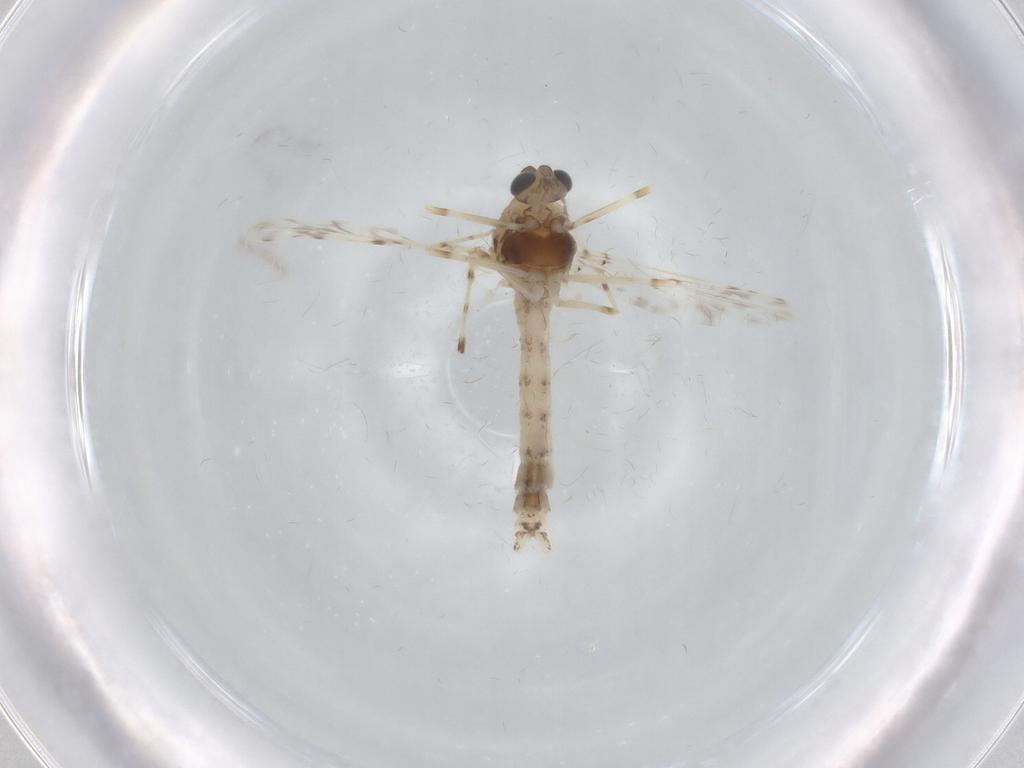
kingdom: Animalia
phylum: Arthropoda
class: Insecta
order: Diptera
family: Chironomidae
